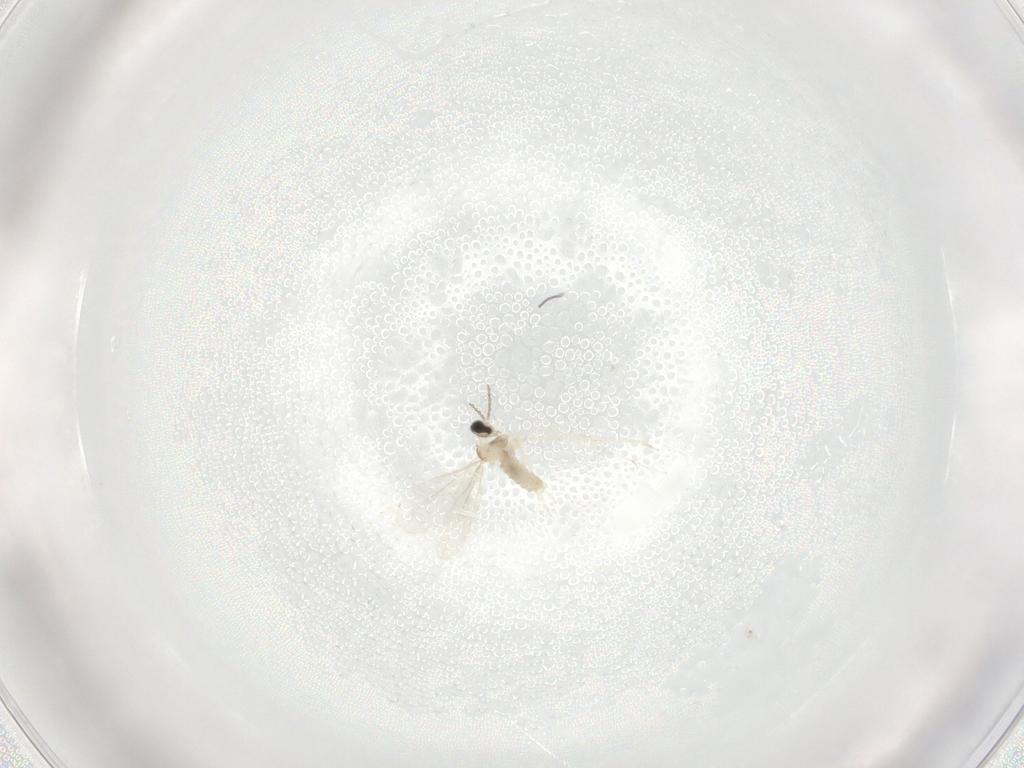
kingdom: Animalia
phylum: Arthropoda
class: Insecta
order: Diptera
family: Cecidomyiidae
